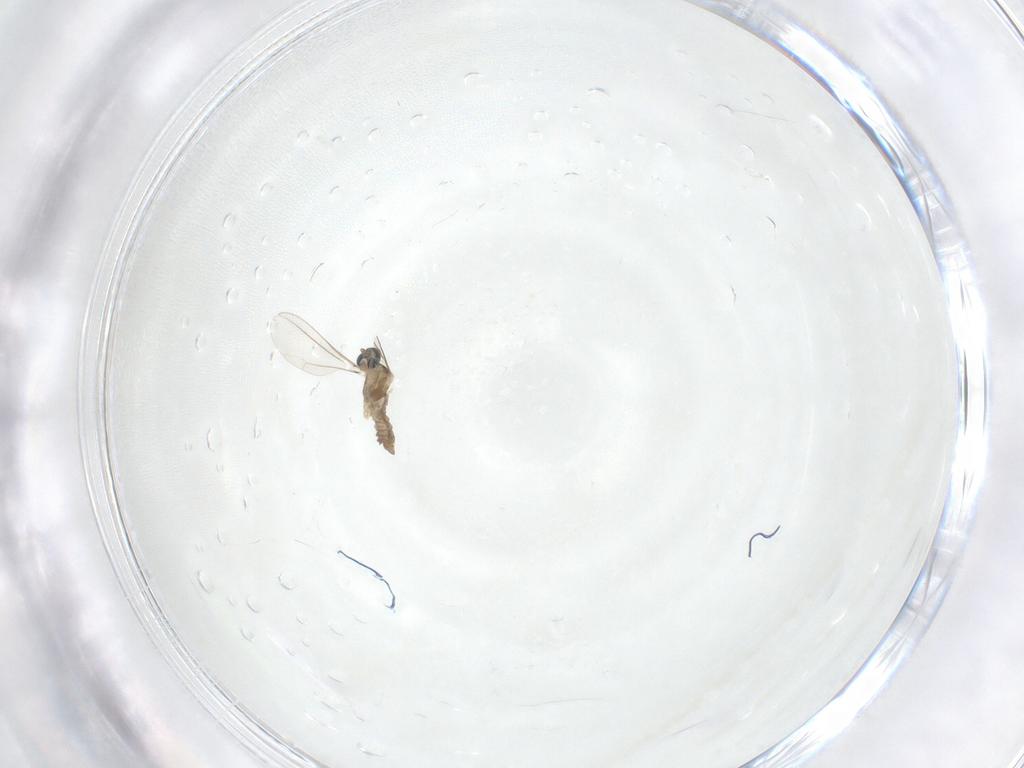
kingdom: Animalia
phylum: Arthropoda
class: Insecta
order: Diptera
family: Cecidomyiidae
